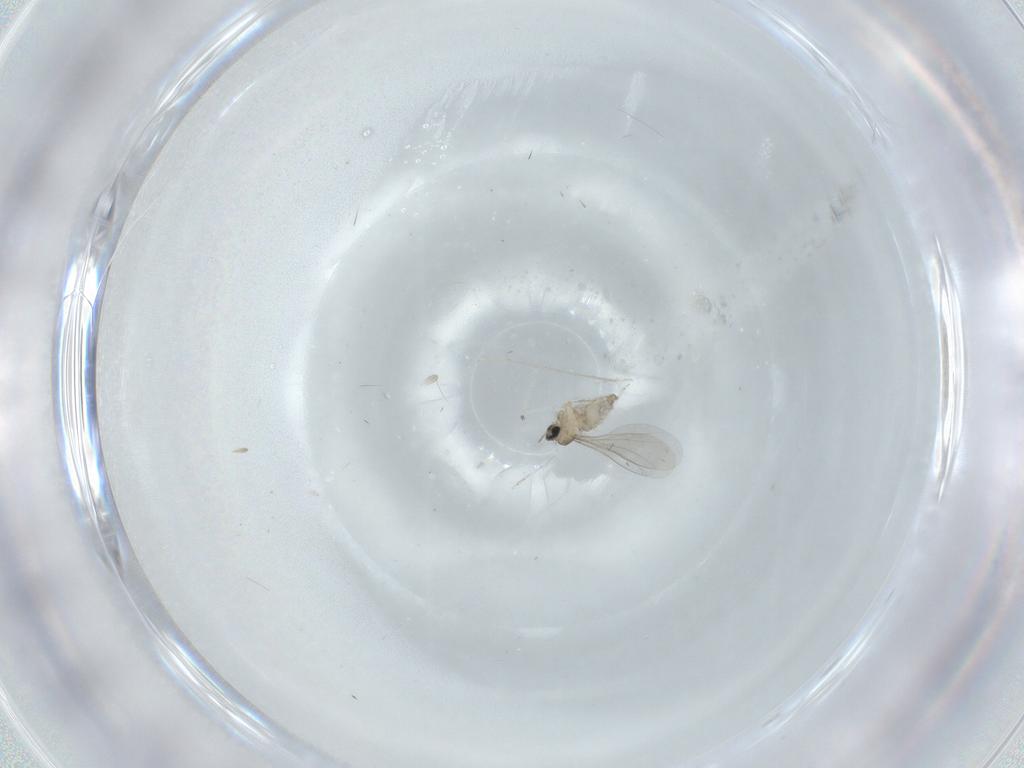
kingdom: Animalia
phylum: Arthropoda
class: Insecta
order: Diptera
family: Cecidomyiidae
